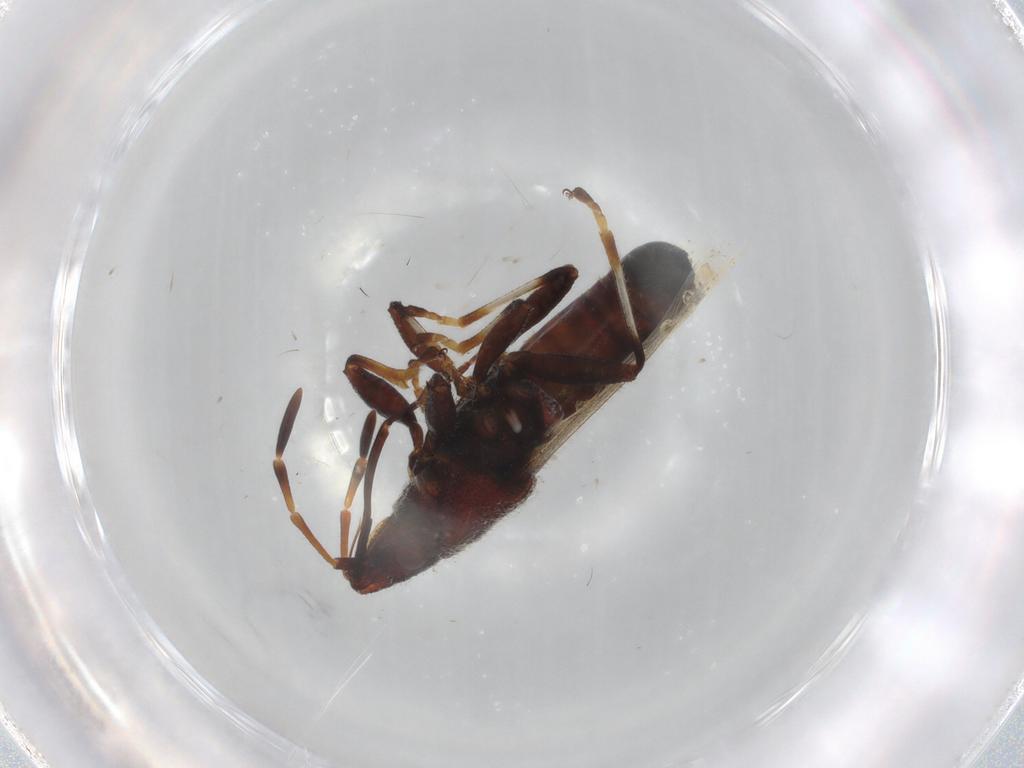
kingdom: Animalia
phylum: Arthropoda
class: Insecta
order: Hemiptera
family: Oxycarenidae
